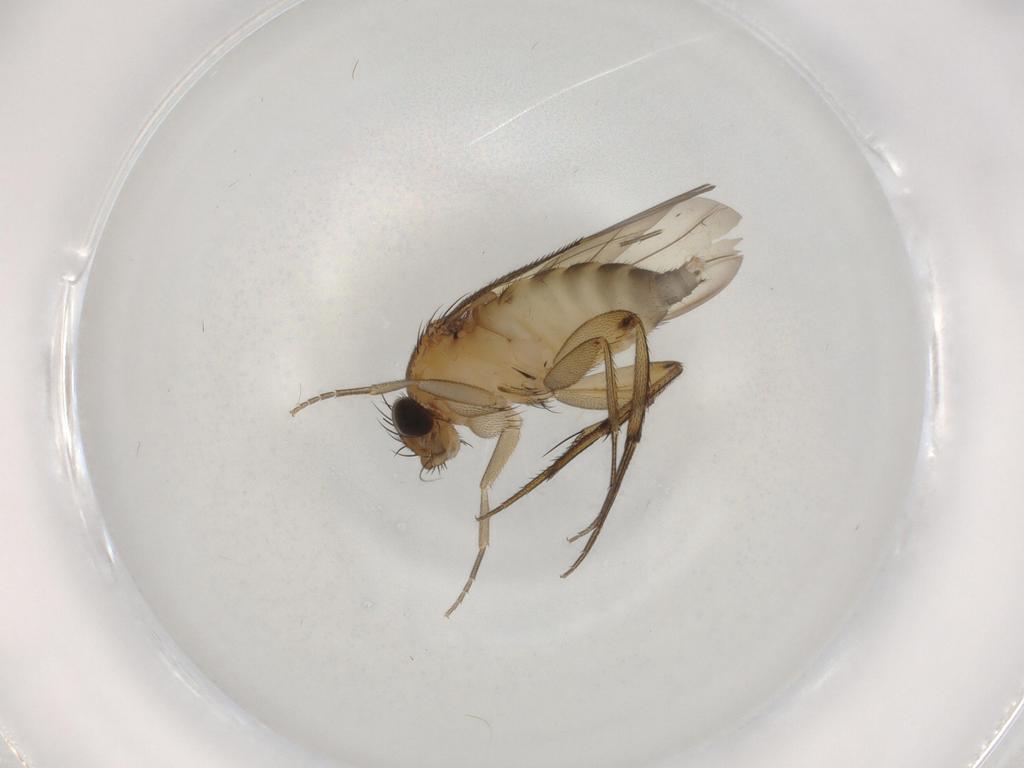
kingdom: Animalia
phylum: Arthropoda
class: Insecta
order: Diptera
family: Phoridae
